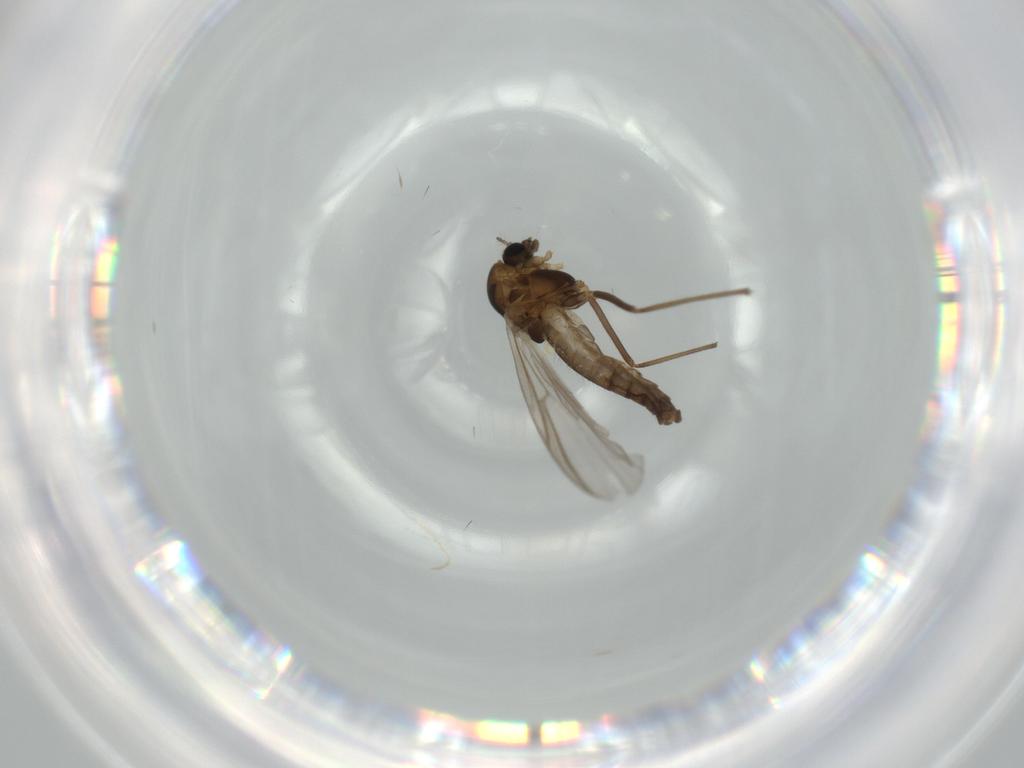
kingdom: Animalia
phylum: Arthropoda
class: Insecta
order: Diptera
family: Chironomidae
